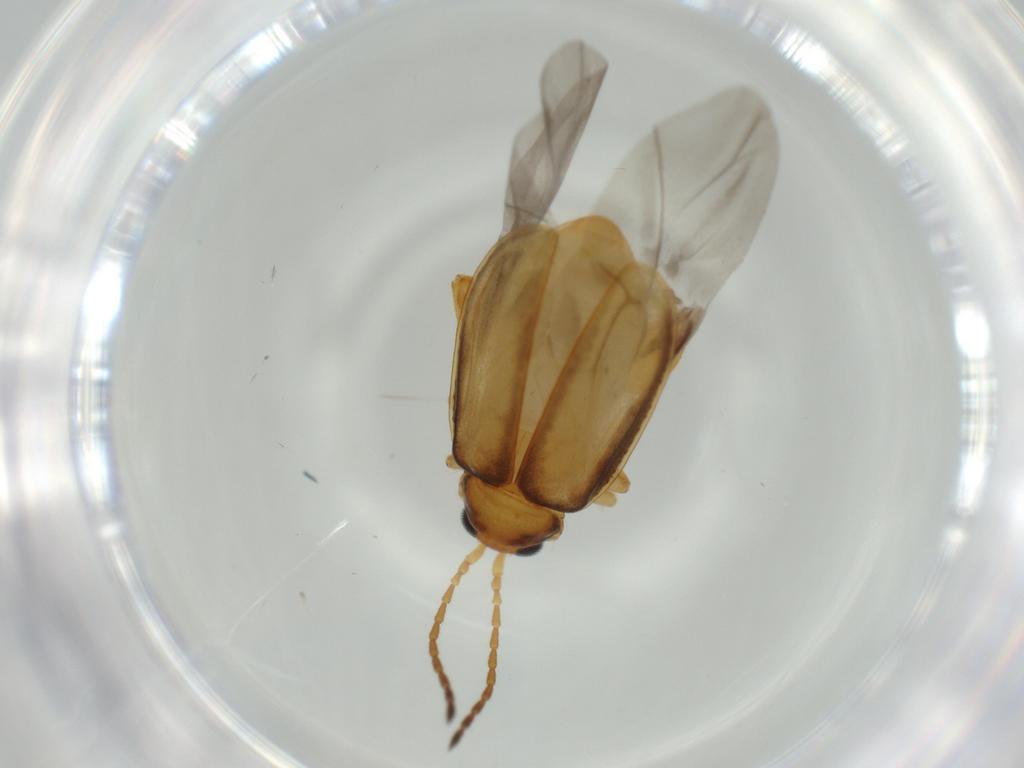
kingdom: Animalia
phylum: Arthropoda
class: Insecta
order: Coleoptera
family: Chrysomelidae
